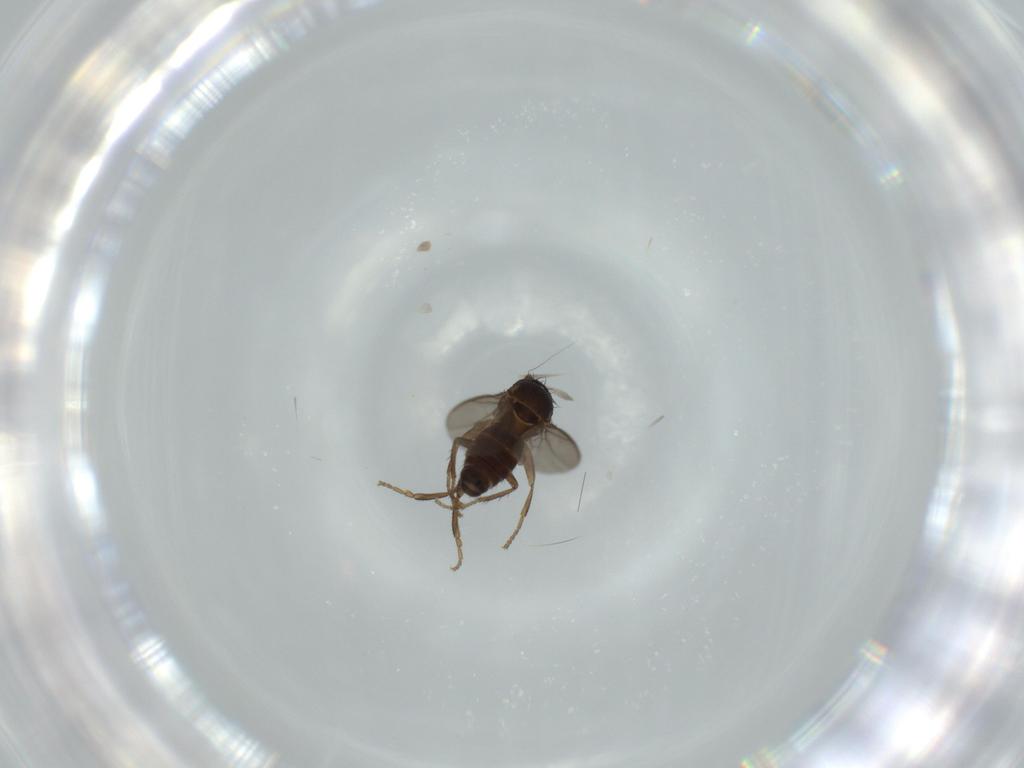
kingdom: Animalia
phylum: Arthropoda
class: Insecta
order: Diptera
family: Sphaeroceridae
